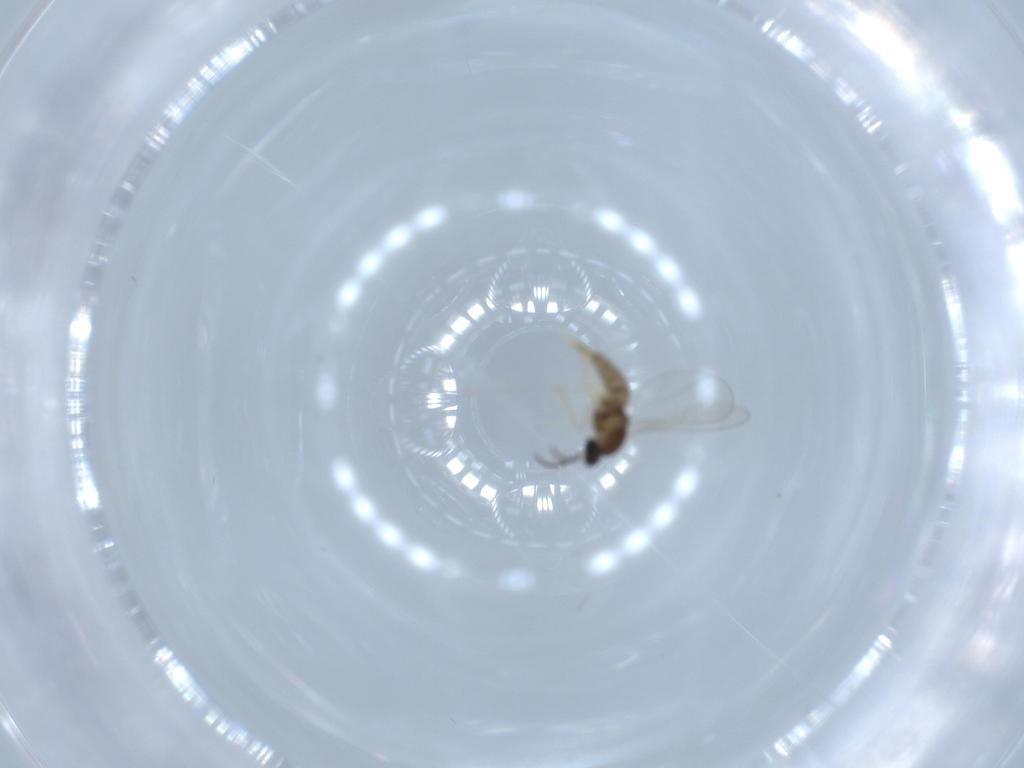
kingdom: Animalia
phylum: Arthropoda
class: Insecta
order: Diptera
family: Cecidomyiidae
